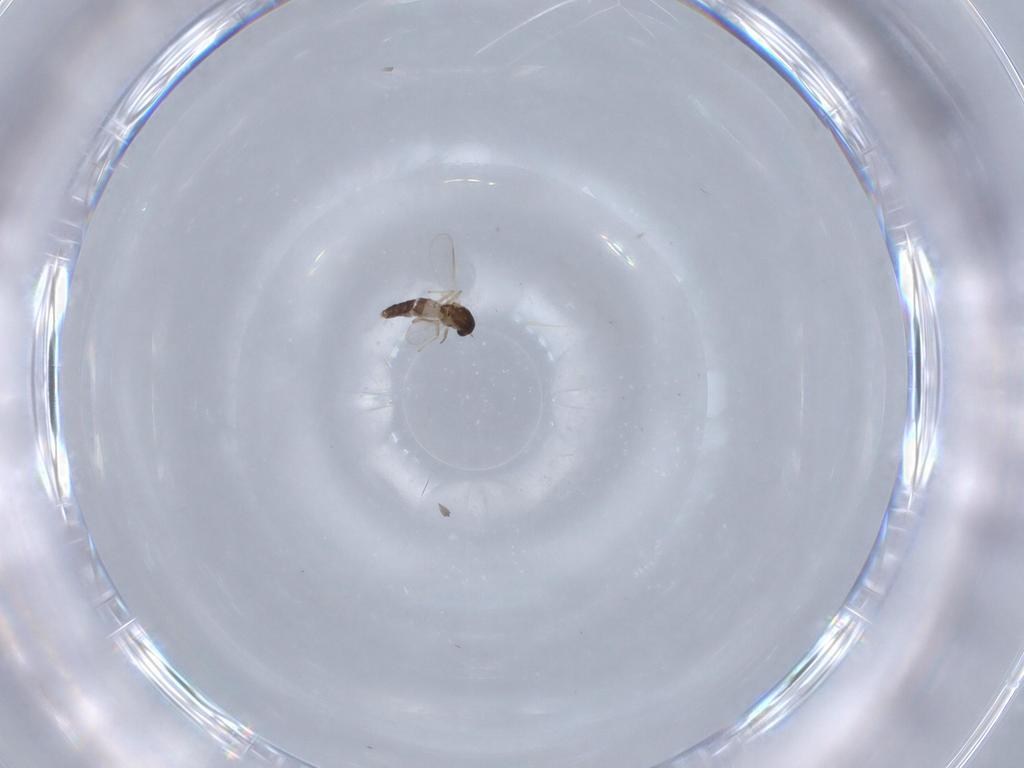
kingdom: Animalia
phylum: Arthropoda
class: Insecta
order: Diptera
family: Chironomidae
